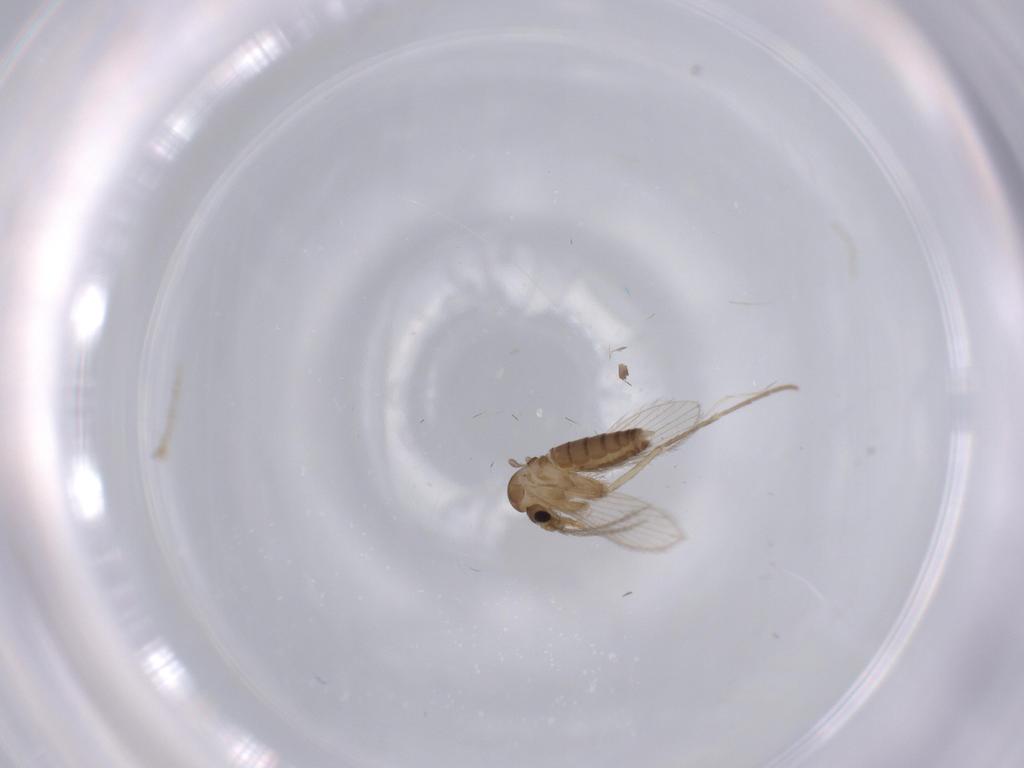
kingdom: Animalia
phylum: Arthropoda
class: Insecta
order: Diptera
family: Psychodidae
